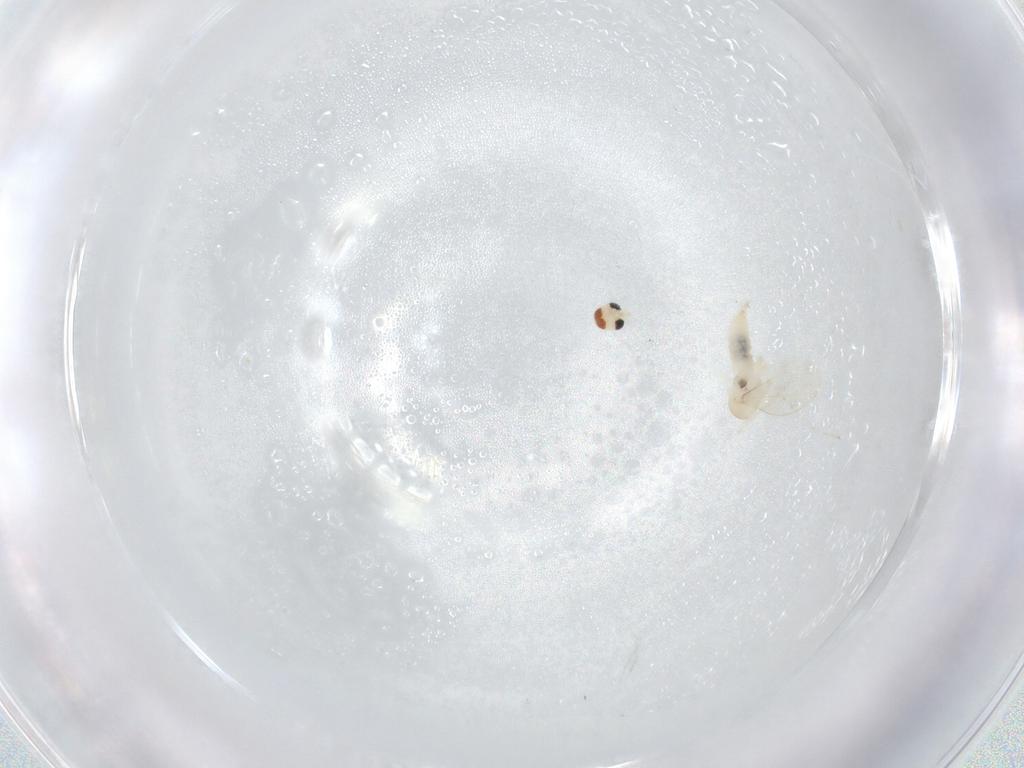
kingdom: Animalia
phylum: Arthropoda
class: Insecta
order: Diptera
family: Cecidomyiidae
